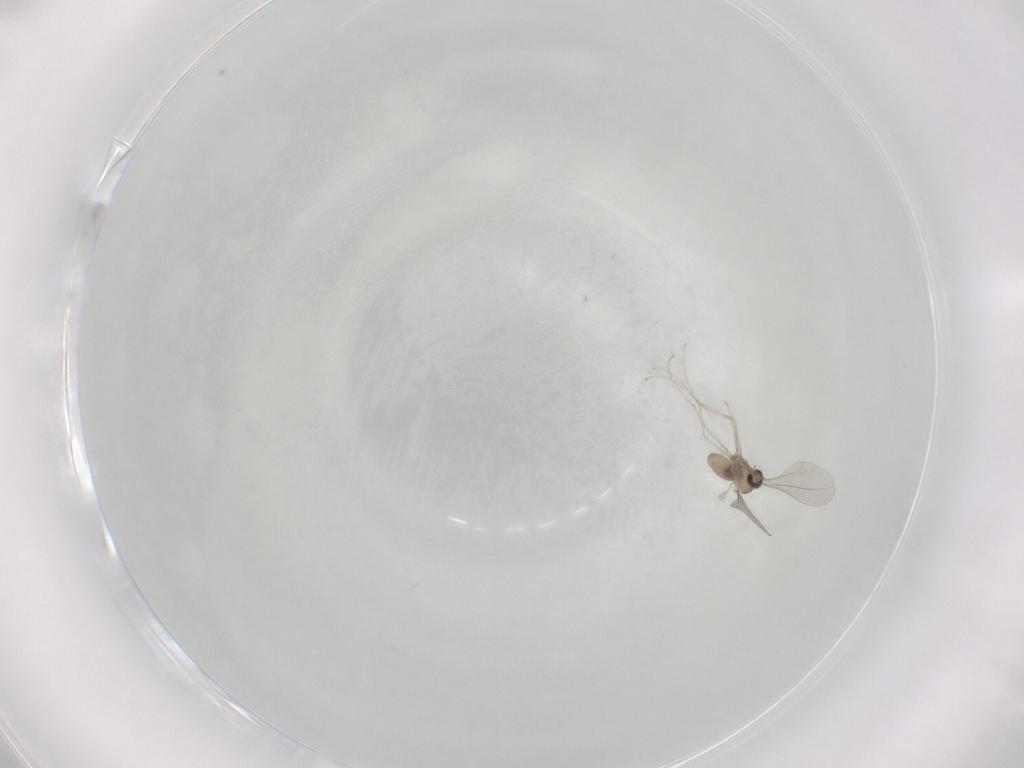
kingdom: Animalia
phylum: Arthropoda
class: Insecta
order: Diptera
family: Cecidomyiidae
